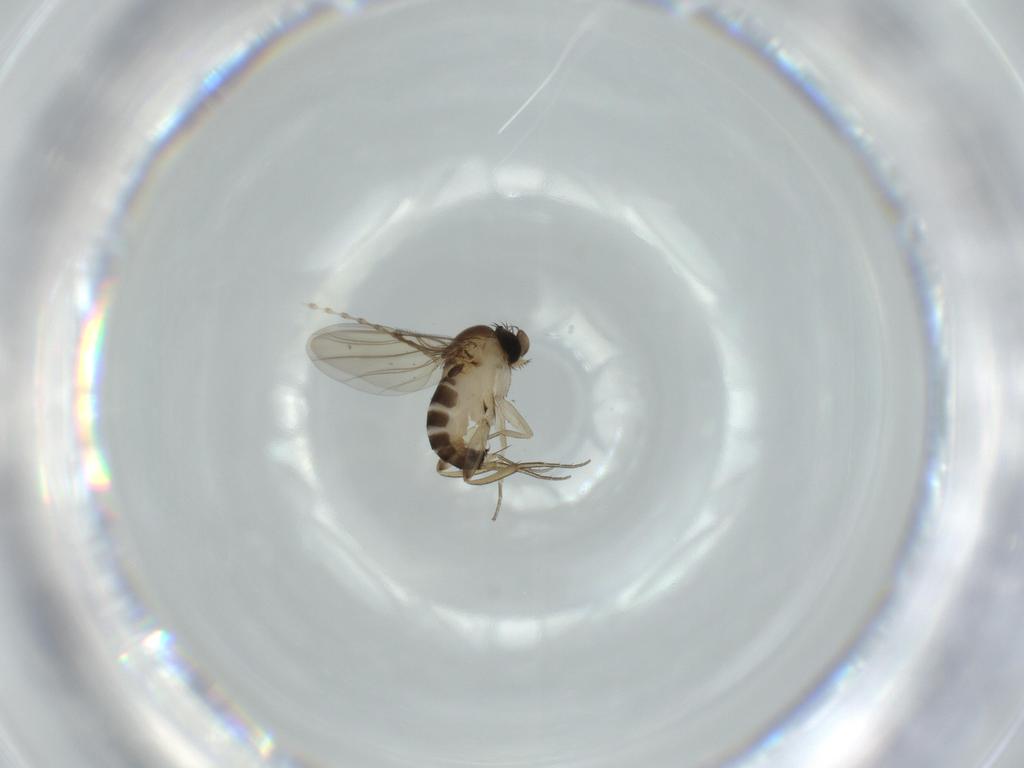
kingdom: Animalia
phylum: Arthropoda
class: Insecta
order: Diptera
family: Phoridae
